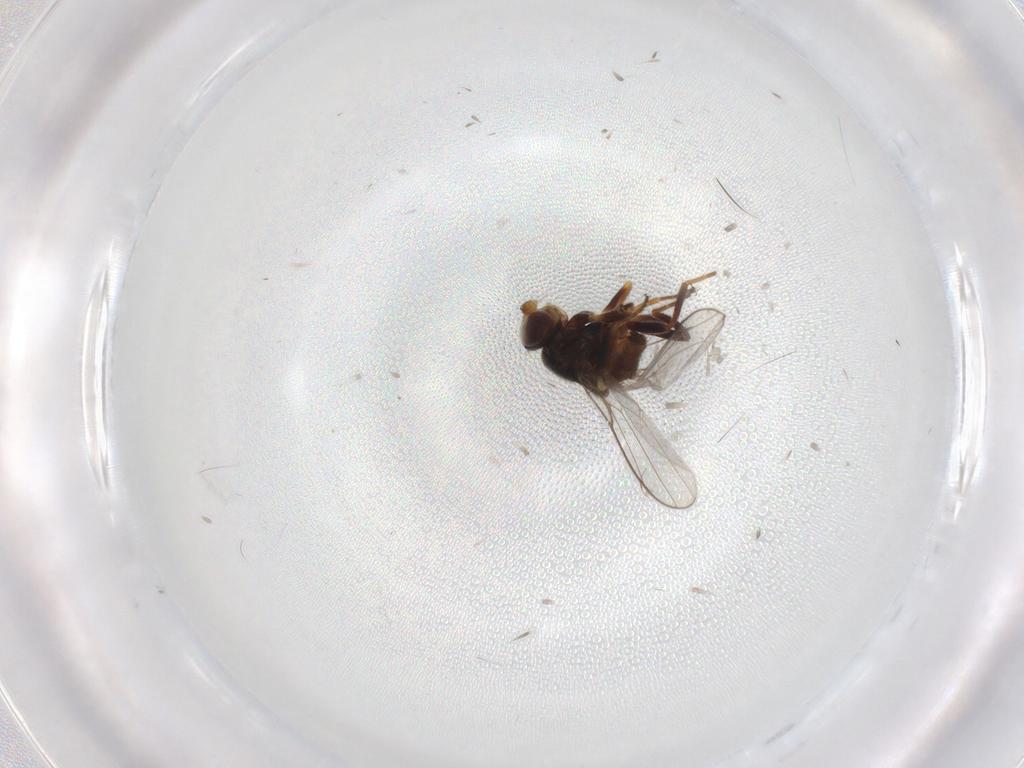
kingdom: Animalia
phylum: Arthropoda
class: Insecta
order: Diptera
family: Chloropidae
